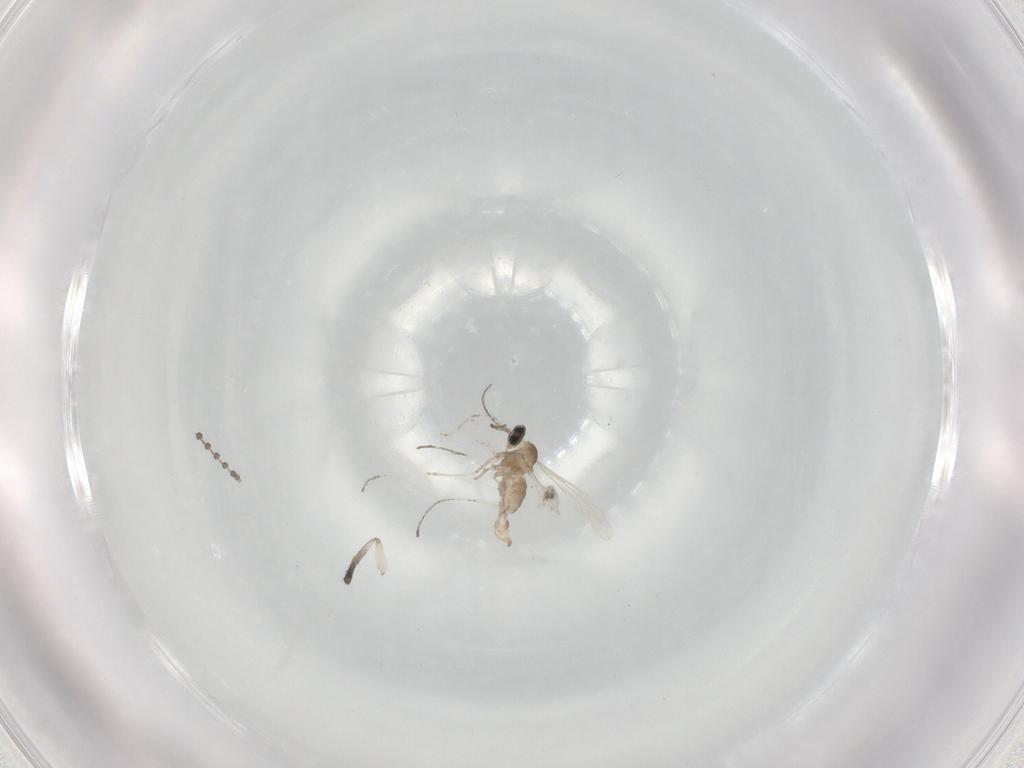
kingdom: Animalia
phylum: Arthropoda
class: Insecta
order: Diptera
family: Cecidomyiidae
